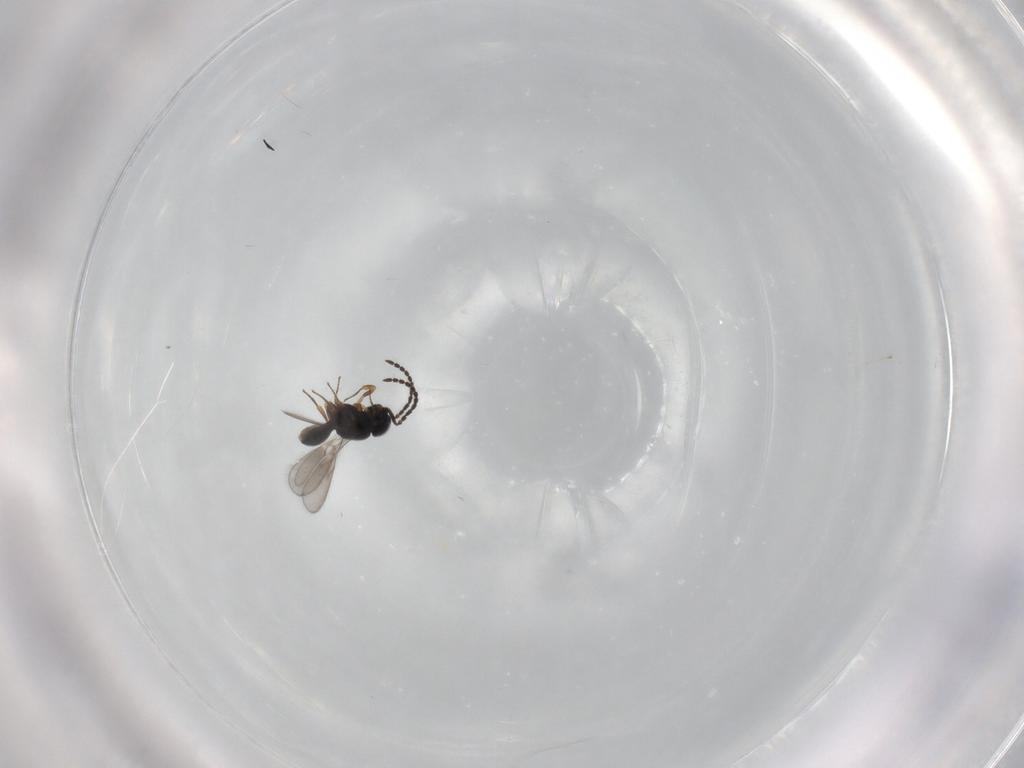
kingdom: Animalia
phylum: Arthropoda
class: Insecta
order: Hymenoptera
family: Scelionidae
